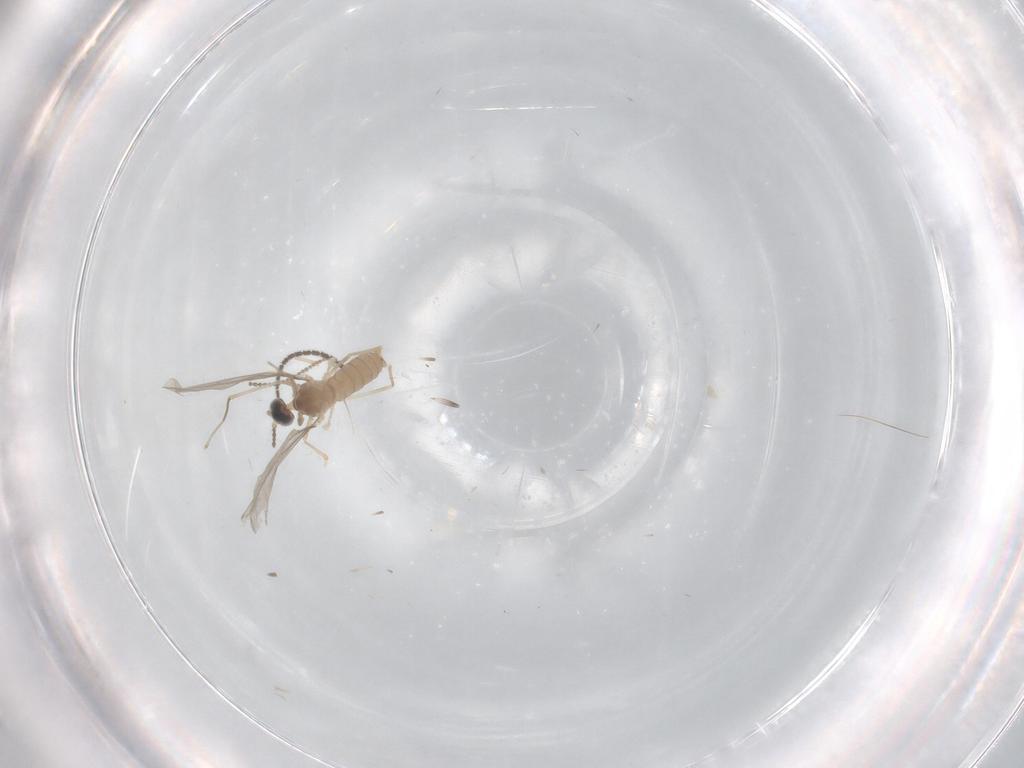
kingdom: Animalia
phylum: Arthropoda
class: Insecta
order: Diptera
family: Cecidomyiidae
